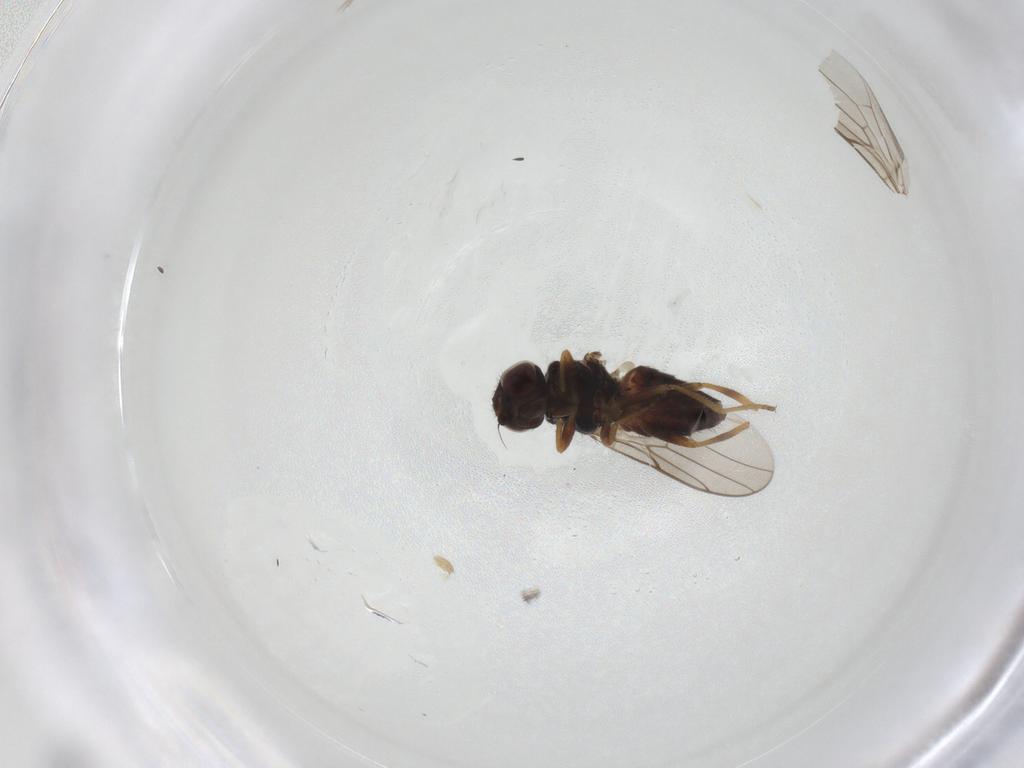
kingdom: Animalia
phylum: Arthropoda
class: Insecta
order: Diptera
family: Chloropidae
